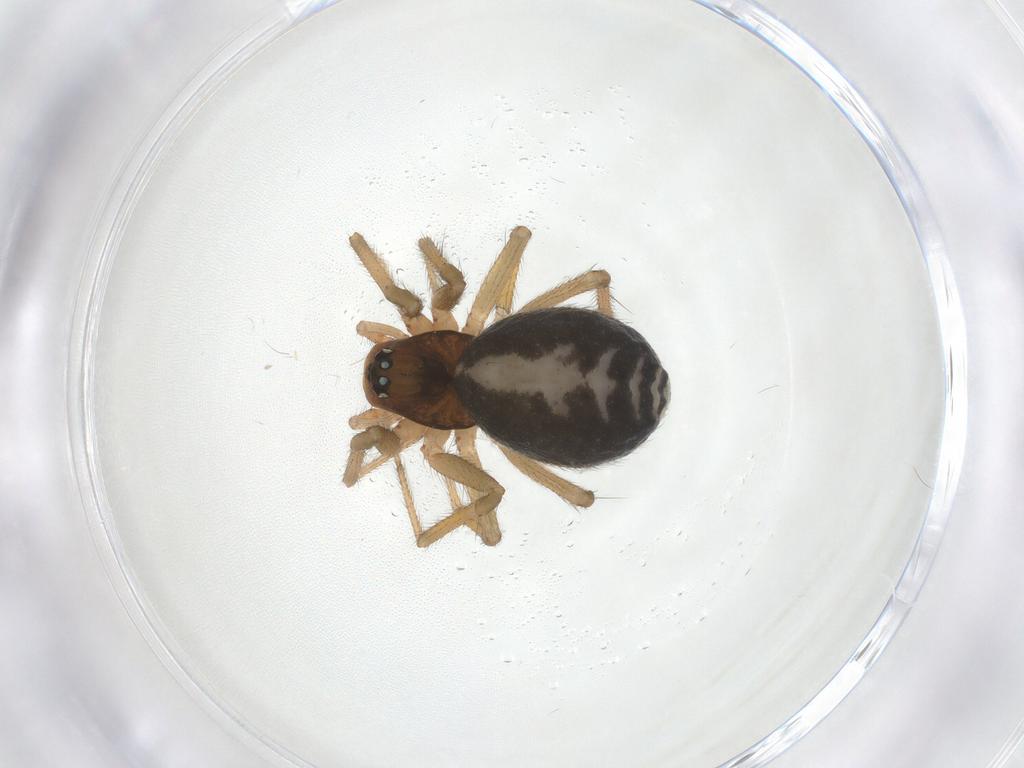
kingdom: Animalia
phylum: Arthropoda
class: Arachnida
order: Araneae
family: Linyphiidae
